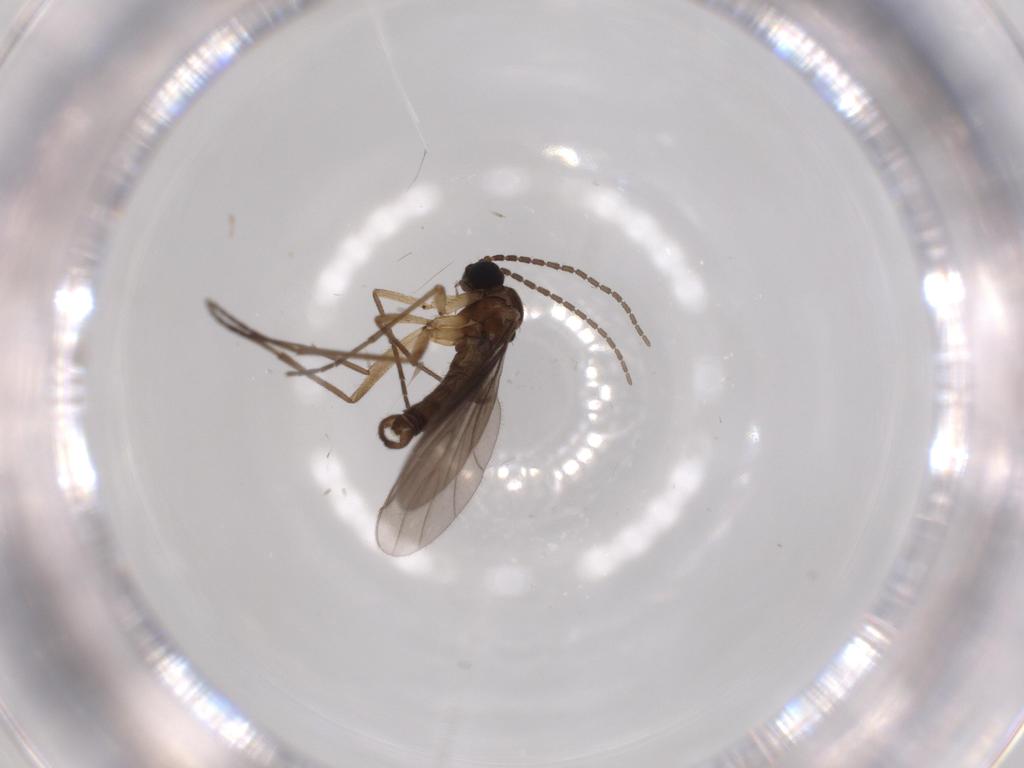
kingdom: Animalia
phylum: Arthropoda
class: Insecta
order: Diptera
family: Sciaridae
